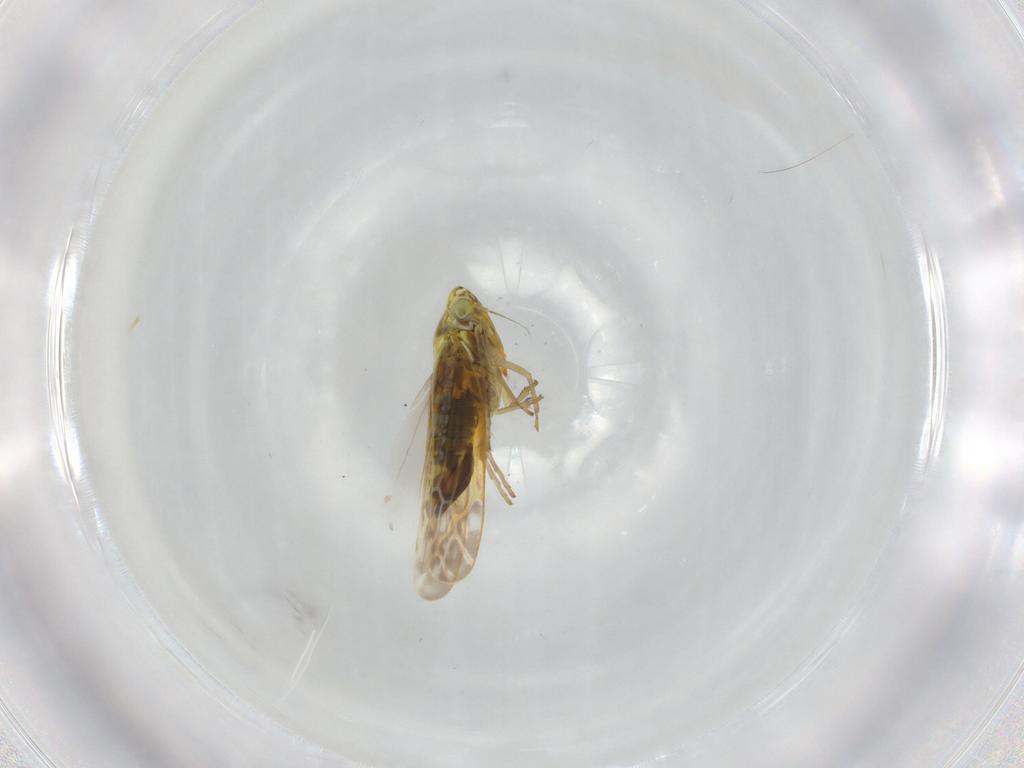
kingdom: Animalia
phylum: Arthropoda
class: Insecta
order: Hemiptera
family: Cicadellidae
